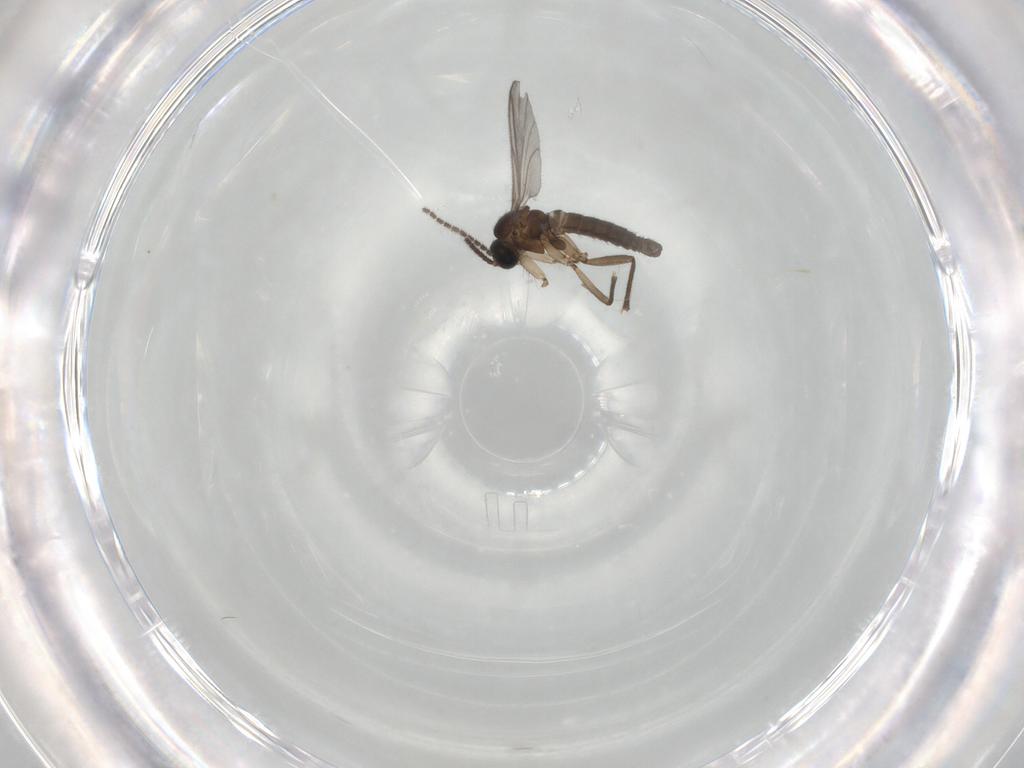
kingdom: Animalia
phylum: Arthropoda
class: Insecta
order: Diptera
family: Sciaridae
